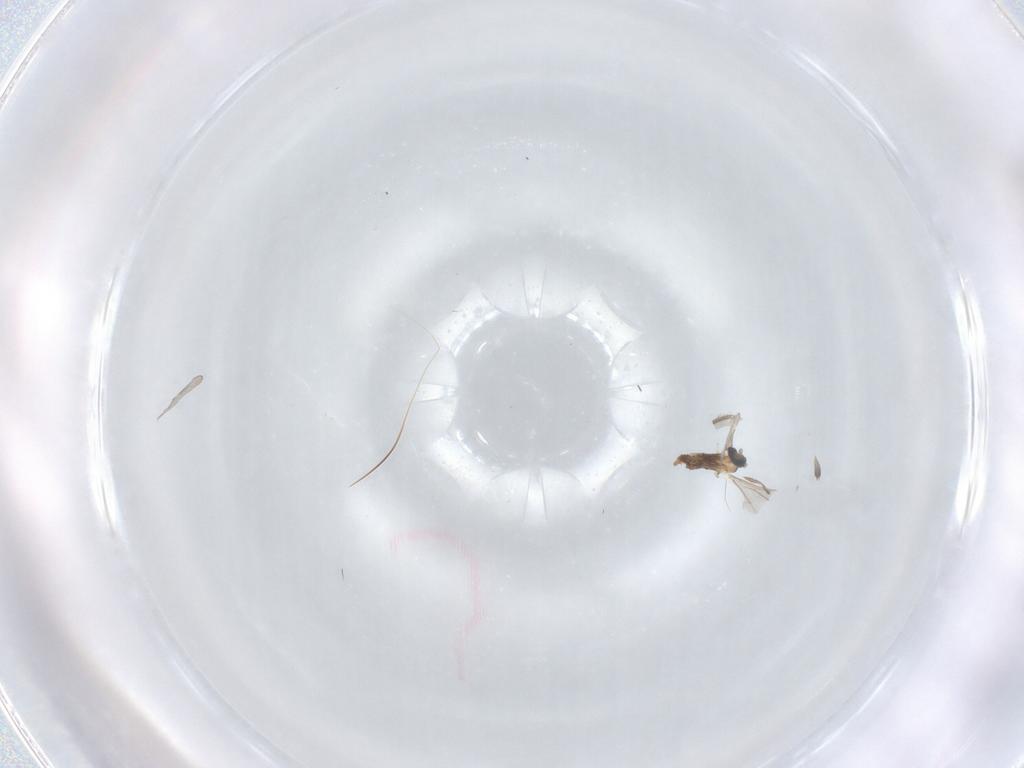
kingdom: Animalia
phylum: Arthropoda
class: Insecta
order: Diptera
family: Cecidomyiidae
